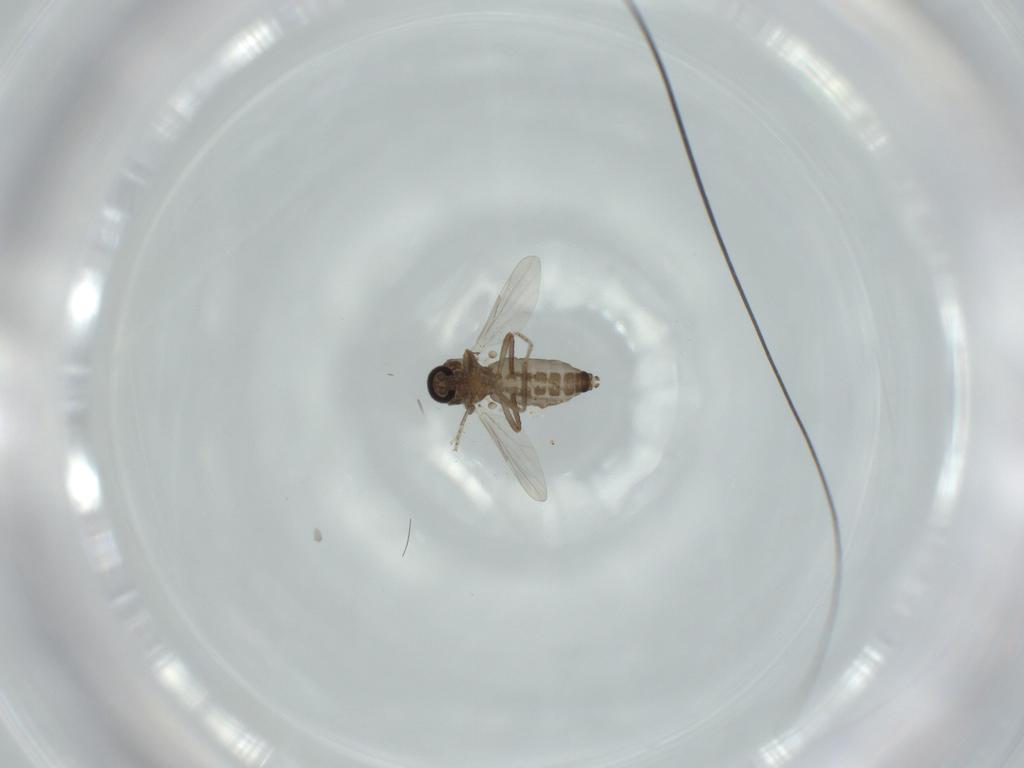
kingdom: Animalia
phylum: Arthropoda
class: Insecta
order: Diptera
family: Ceratopogonidae
